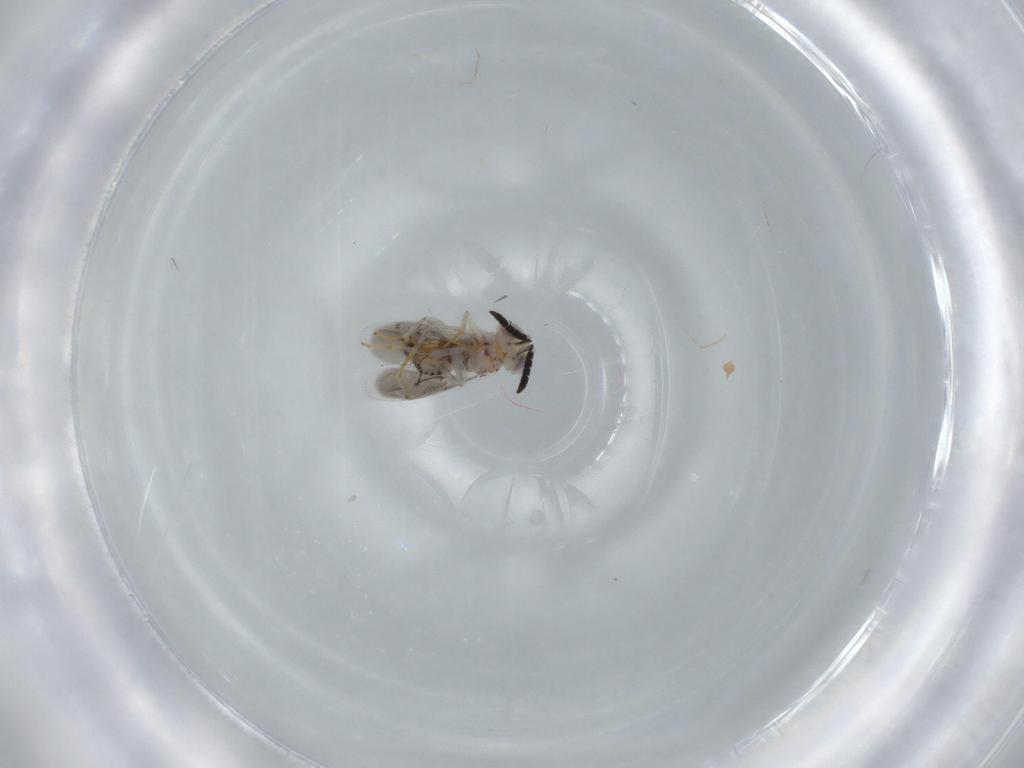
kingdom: Animalia
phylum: Arthropoda
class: Insecta
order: Hymenoptera
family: Aphelinidae
